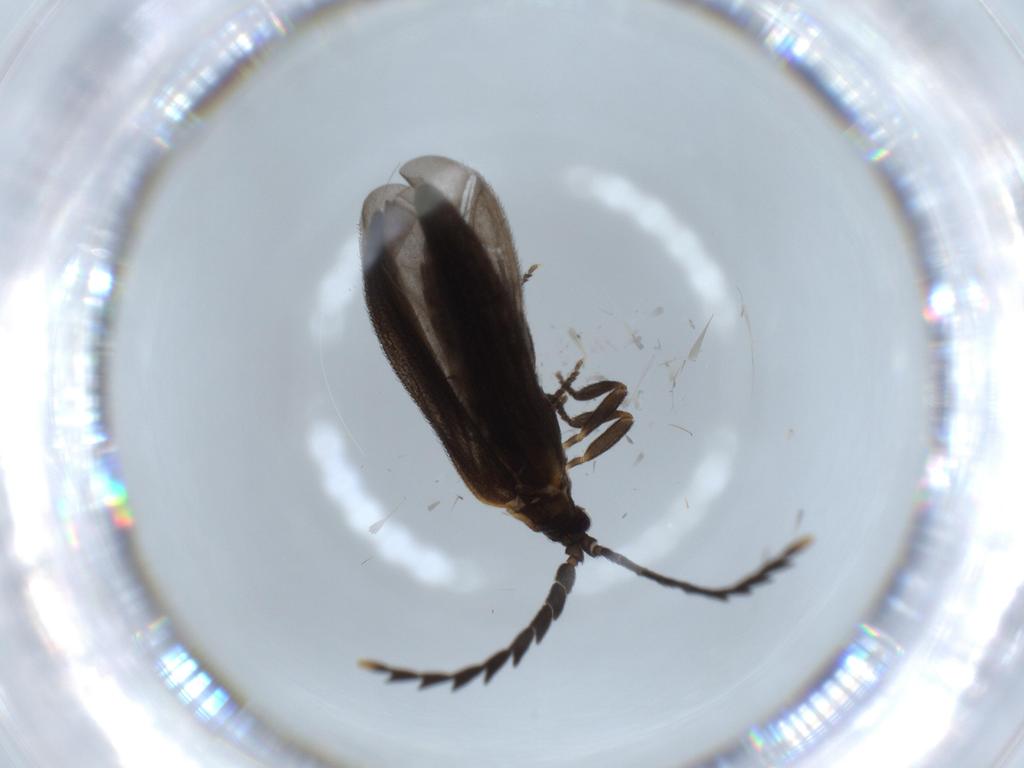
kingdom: Animalia
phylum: Arthropoda
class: Insecta
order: Coleoptera
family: Lycidae
